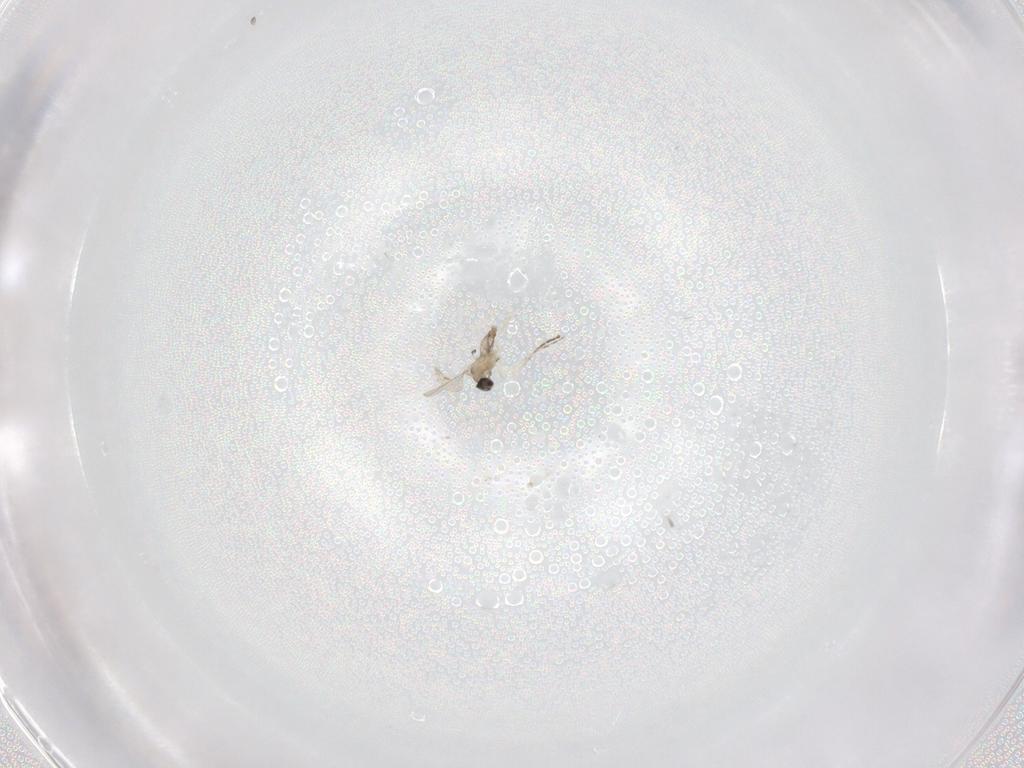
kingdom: Animalia
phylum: Arthropoda
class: Insecta
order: Diptera
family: Cecidomyiidae
